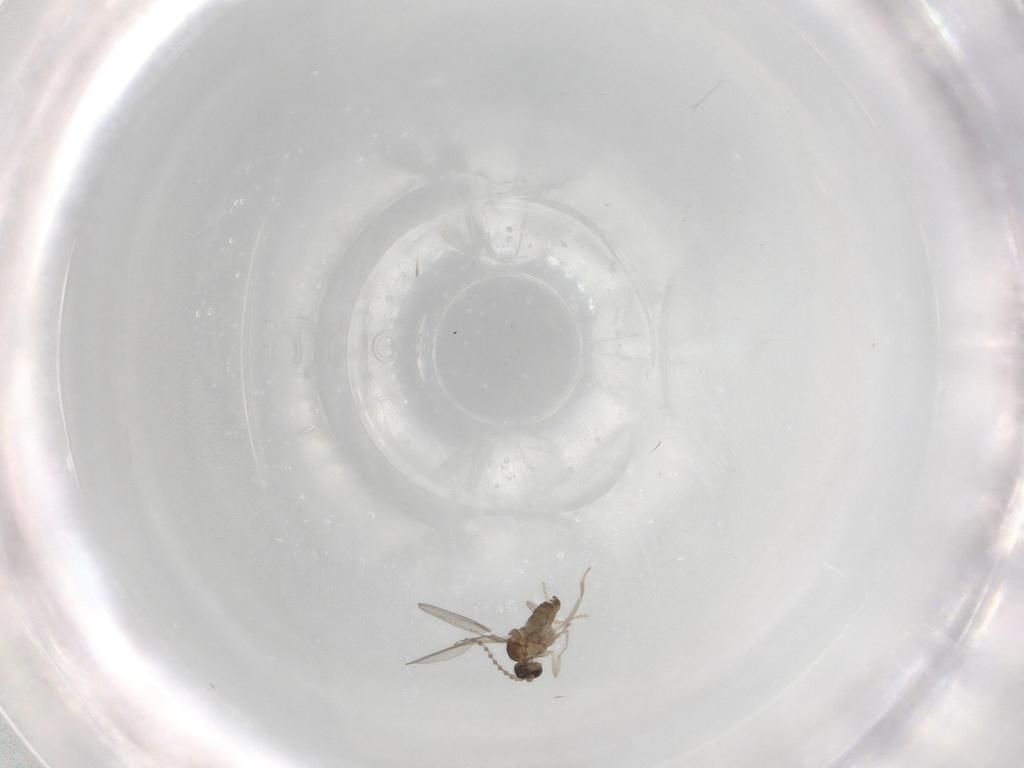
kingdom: Animalia
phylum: Arthropoda
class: Insecta
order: Diptera
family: Cecidomyiidae
